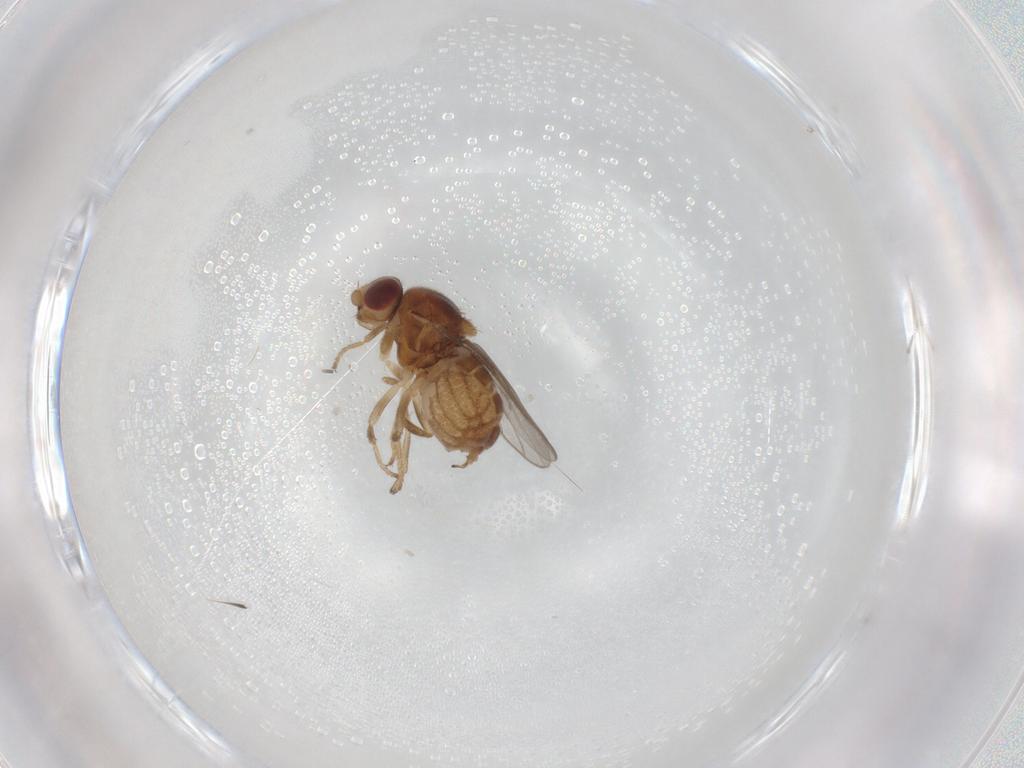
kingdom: Animalia
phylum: Arthropoda
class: Insecta
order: Diptera
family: Chloropidae
